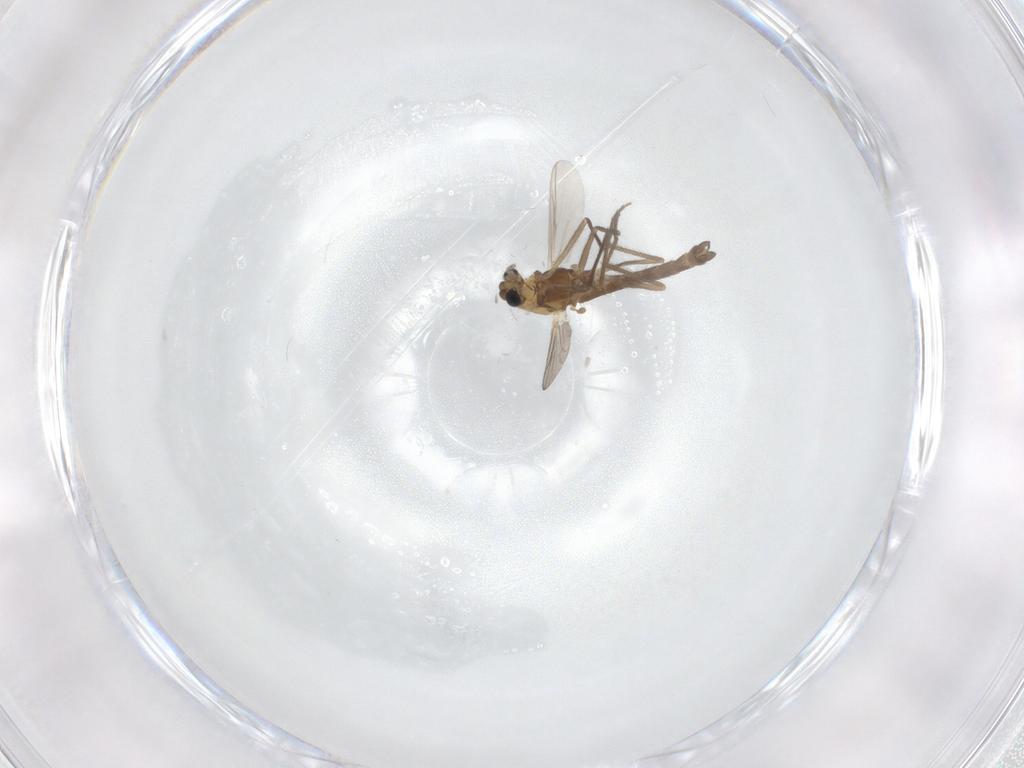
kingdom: Animalia
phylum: Arthropoda
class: Insecta
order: Diptera
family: Chironomidae
